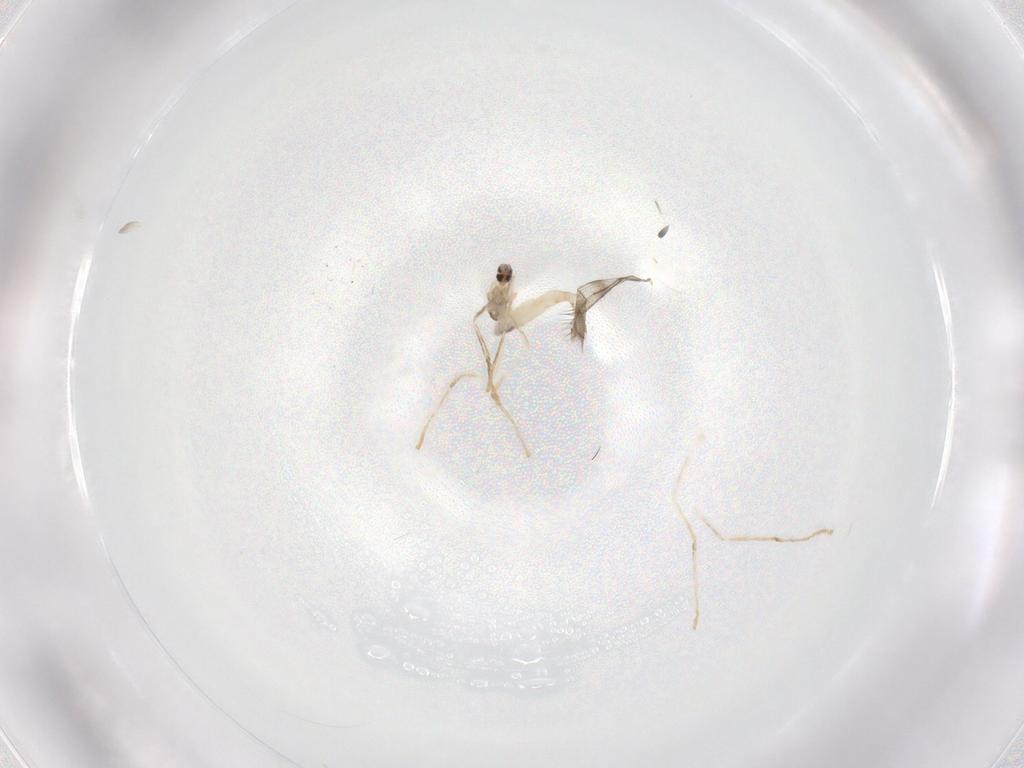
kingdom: Animalia
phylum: Arthropoda
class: Insecta
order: Diptera
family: Cecidomyiidae
